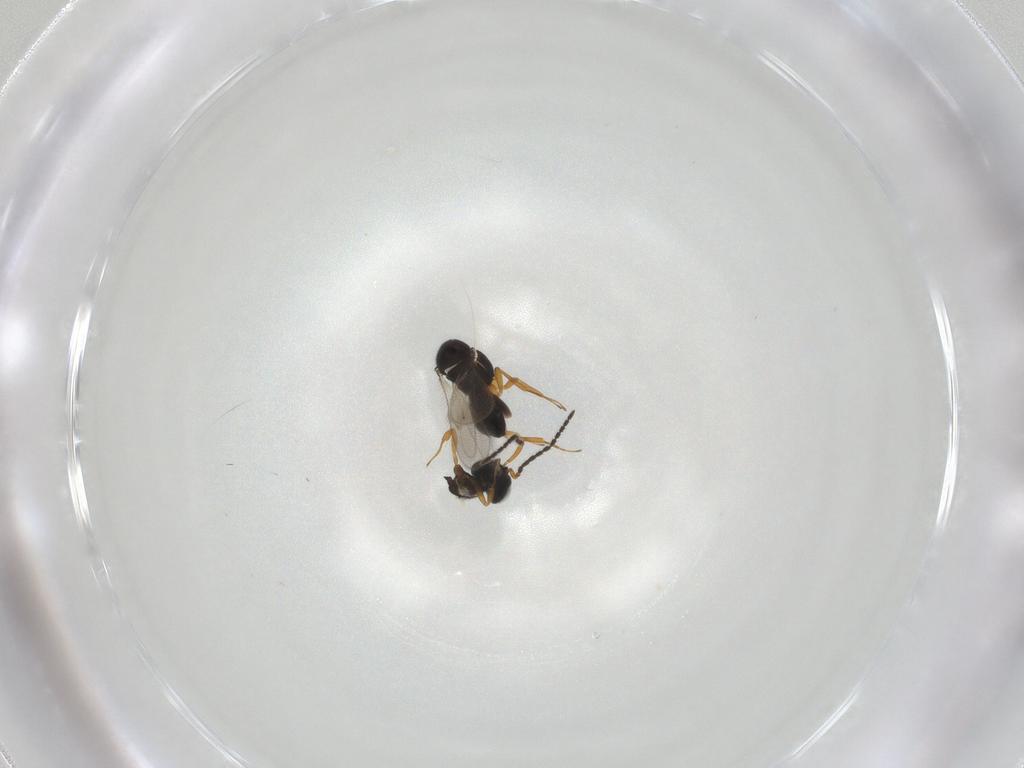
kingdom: Animalia
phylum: Arthropoda
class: Insecta
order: Hymenoptera
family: Scelionidae
